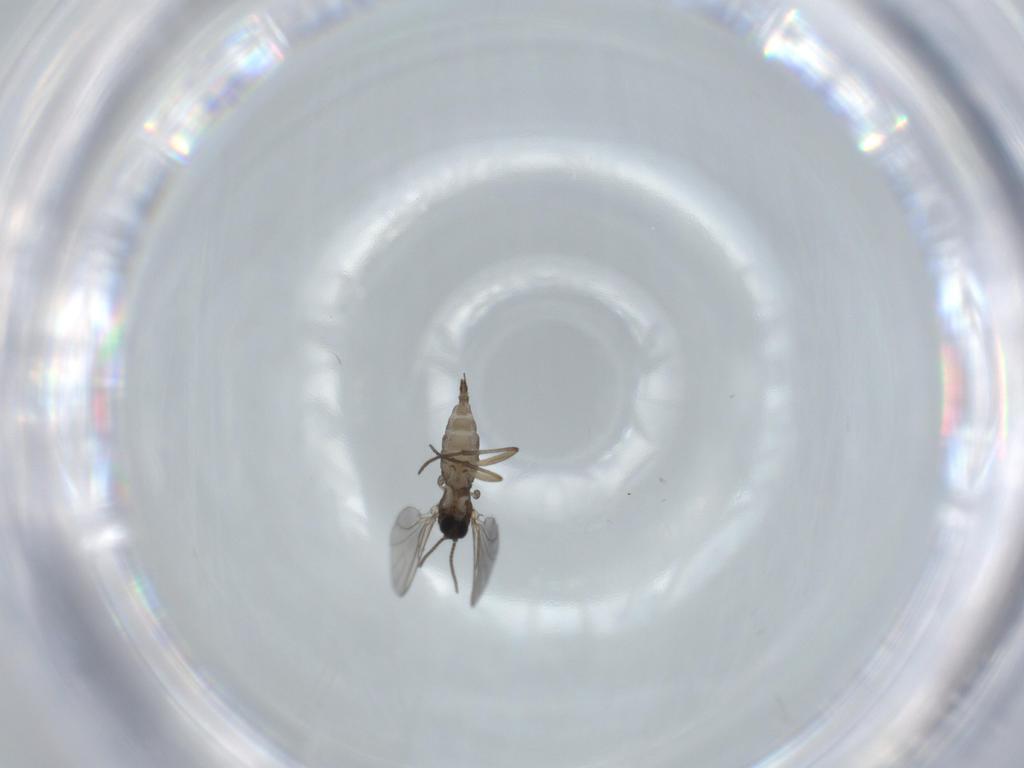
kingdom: Animalia
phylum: Arthropoda
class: Insecta
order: Diptera
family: Sciaridae
